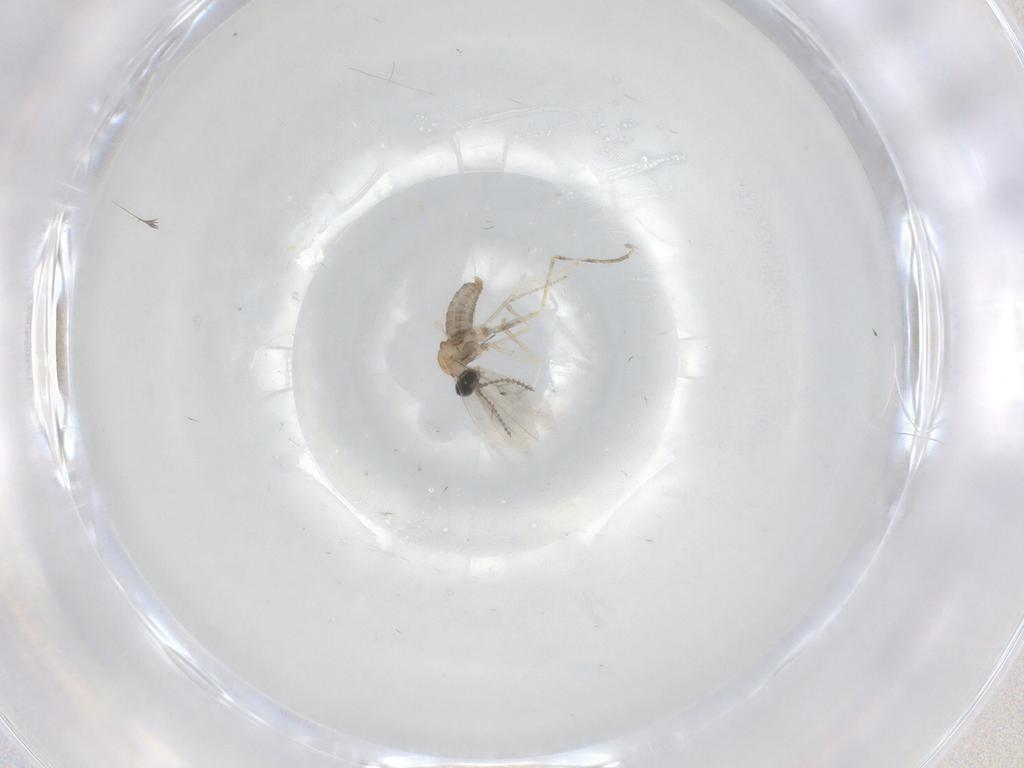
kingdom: Animalia
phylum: Arthropoda
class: Insecta
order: Diptera
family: Cecidomyiidae
